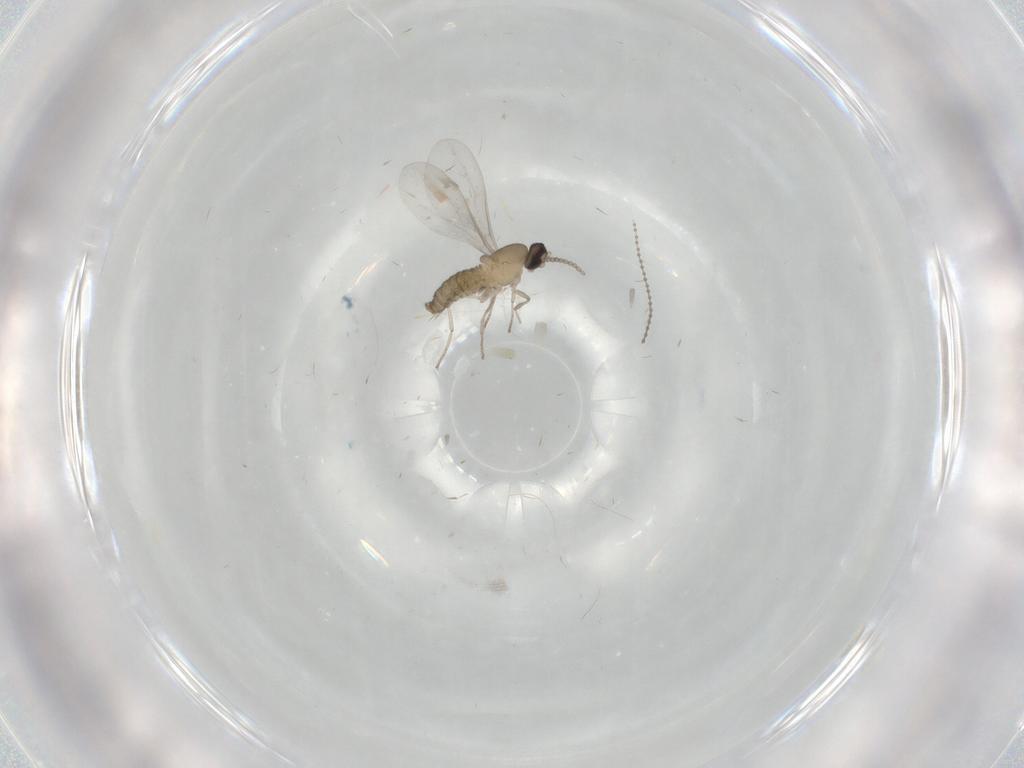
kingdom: Animalia
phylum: Arthropoda
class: Insecta
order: Diptera
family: Cecidomyiidae
